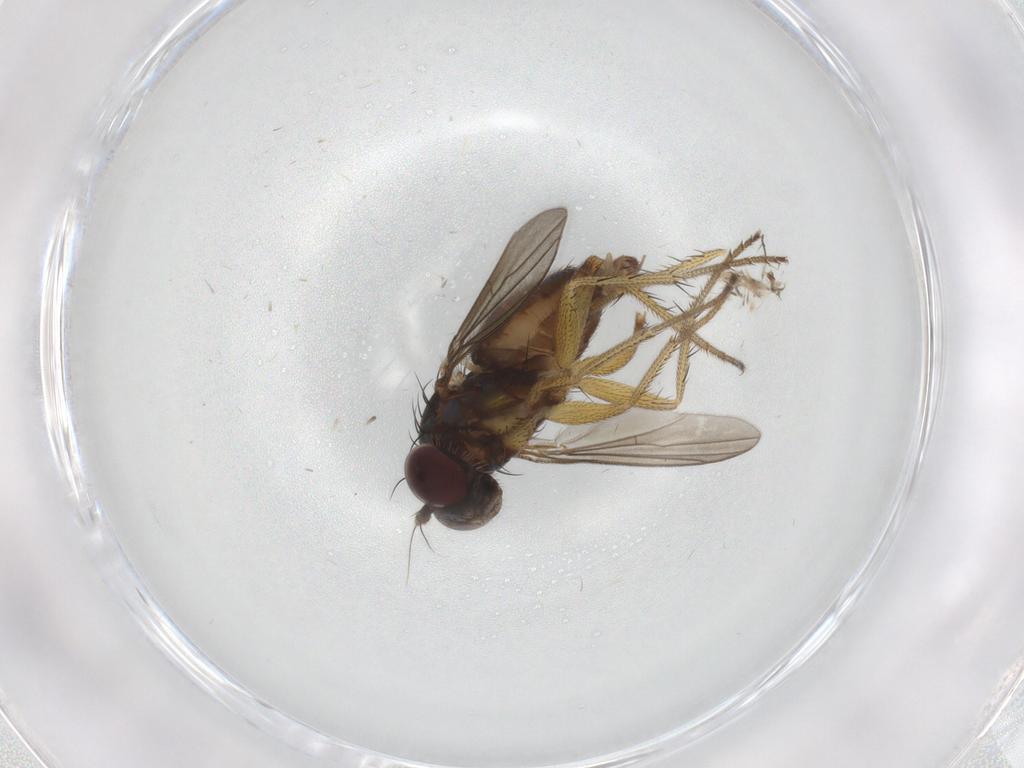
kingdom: Animalia
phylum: Arthropoda
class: Insecta
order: Diptera
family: Dolichopodidae
